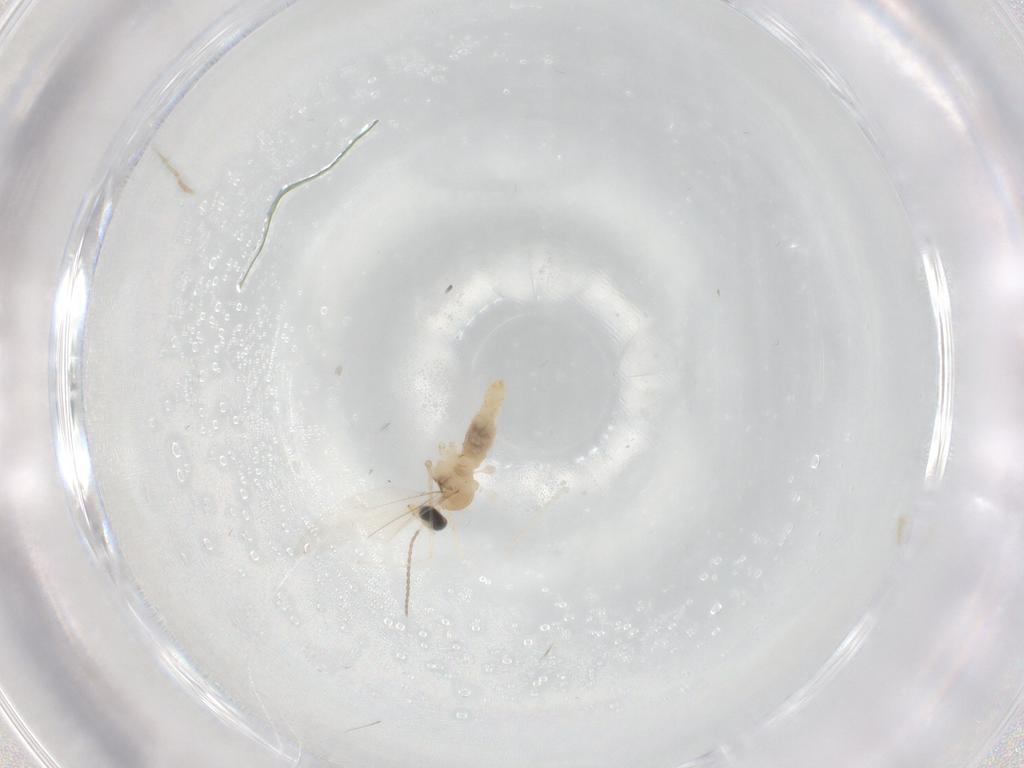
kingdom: Animalia
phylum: Arthropoda
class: Insecta
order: Diptera
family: Cecidomyiidae
